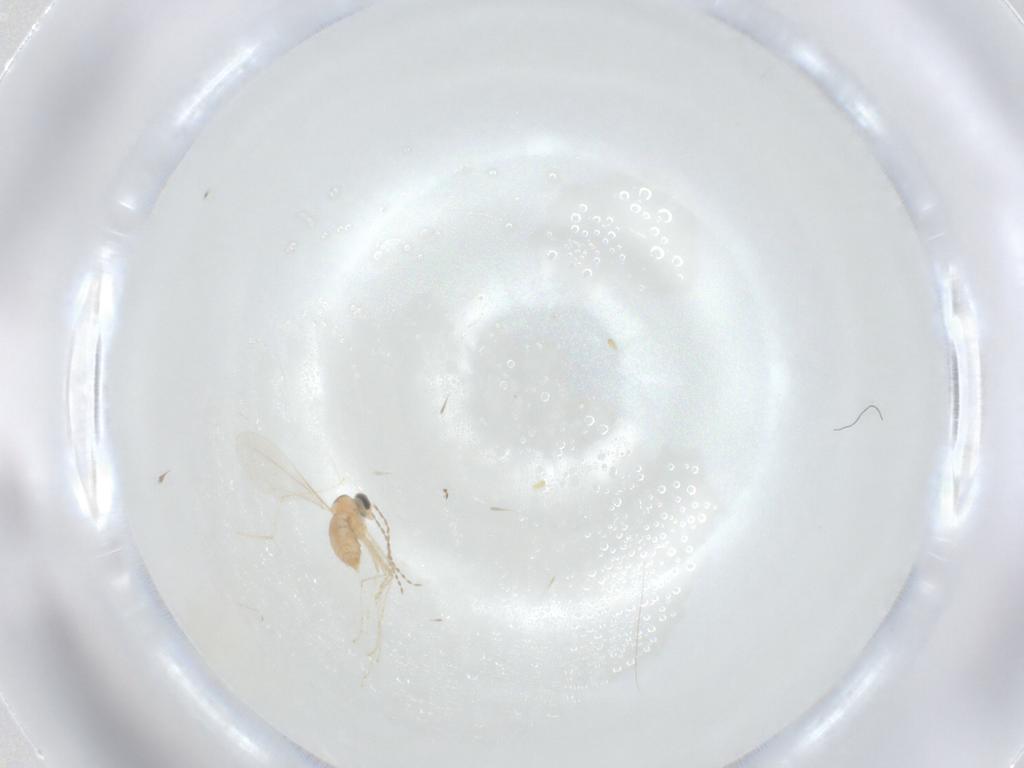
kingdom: Animalia
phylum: Arthropoda
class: Insecta
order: Diptera
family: Cecidomyiidae
